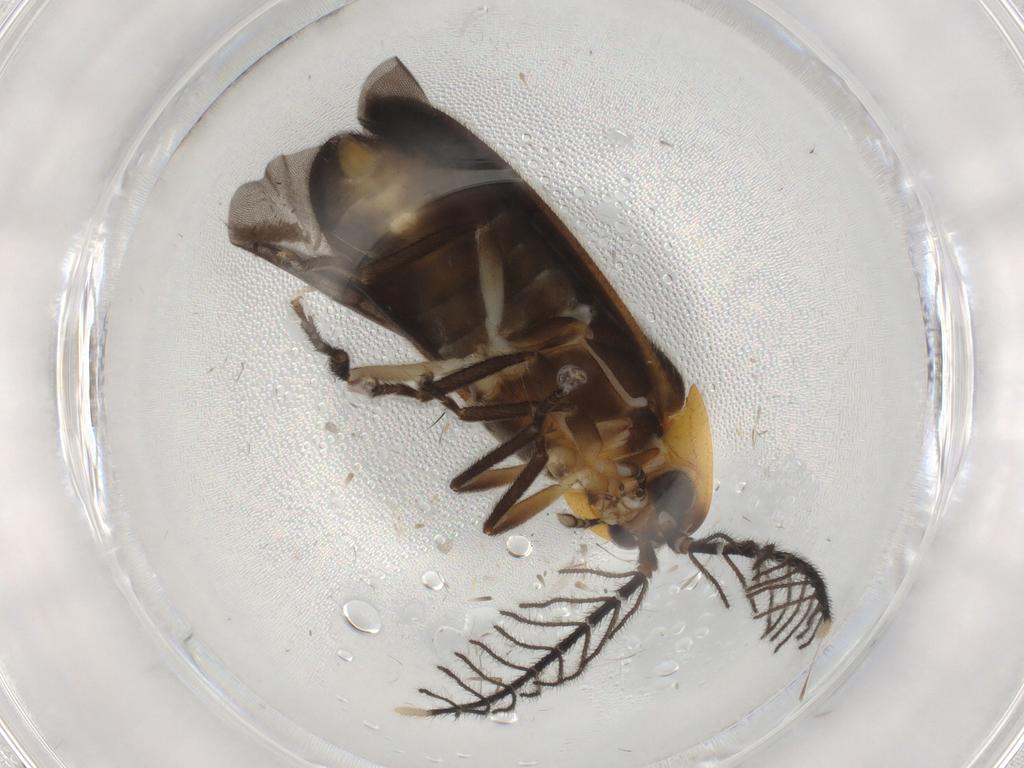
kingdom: Animalia
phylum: Arthropoda
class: Insecta
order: Coleoptera
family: Lampyridae
